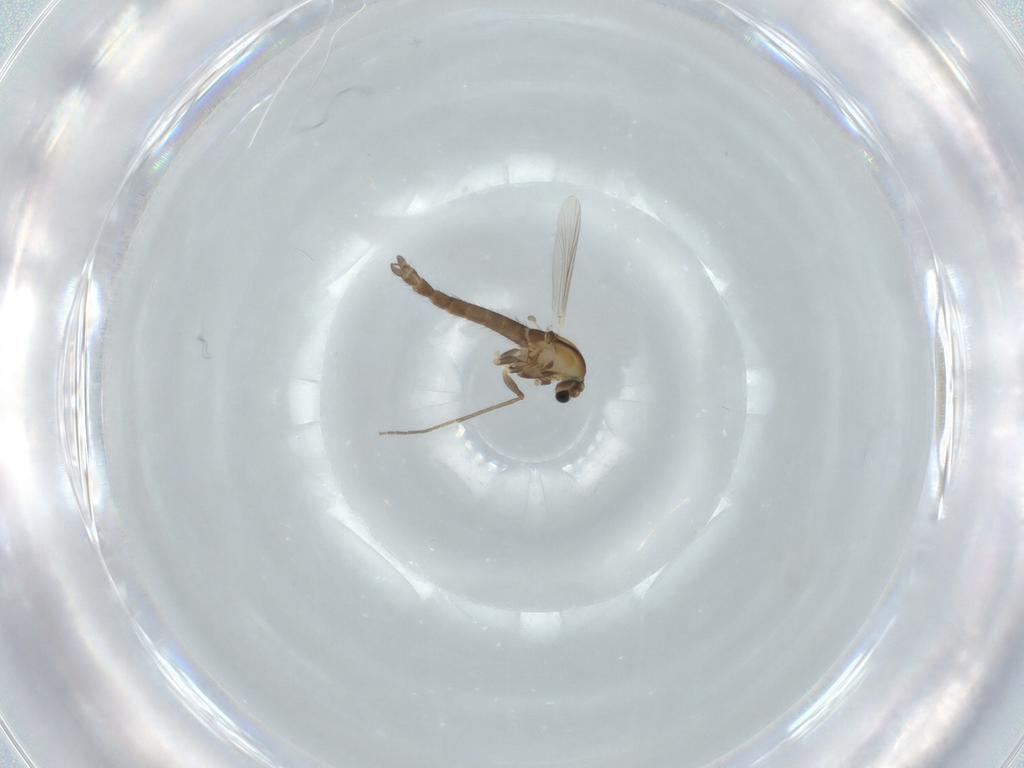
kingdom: Animalia
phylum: Arthropoda
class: Insecta
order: Diptera
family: Chironomidae
